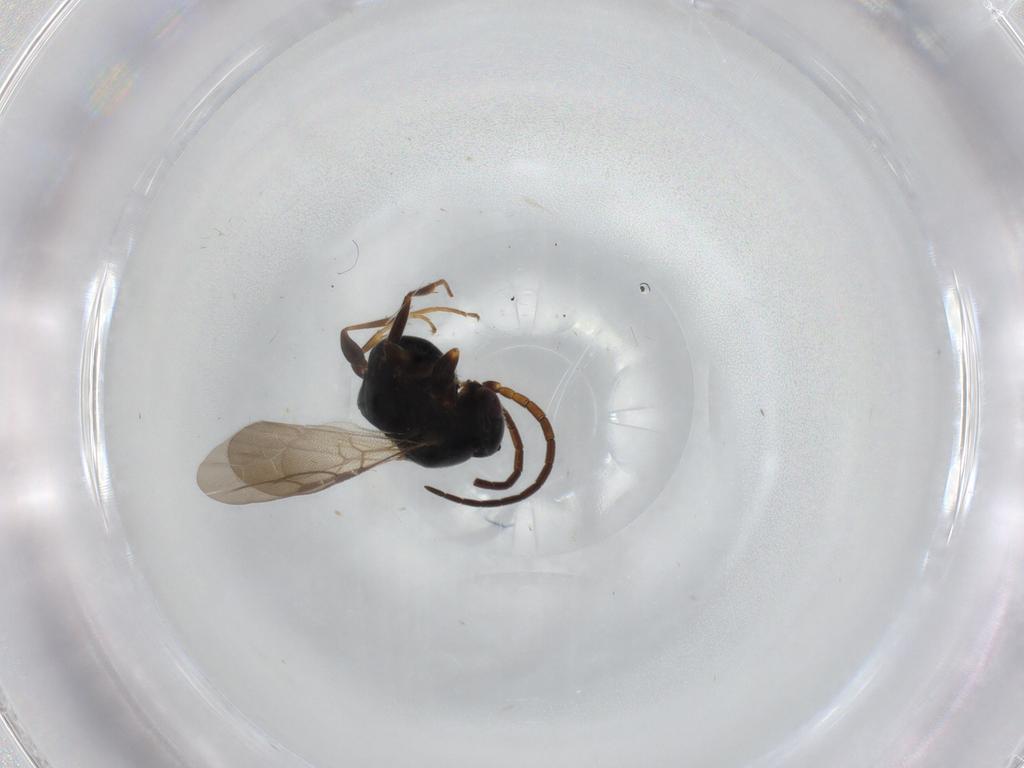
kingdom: Animalia
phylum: Arthropoda
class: Insecta
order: Hymenoptera
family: Bethylidae
